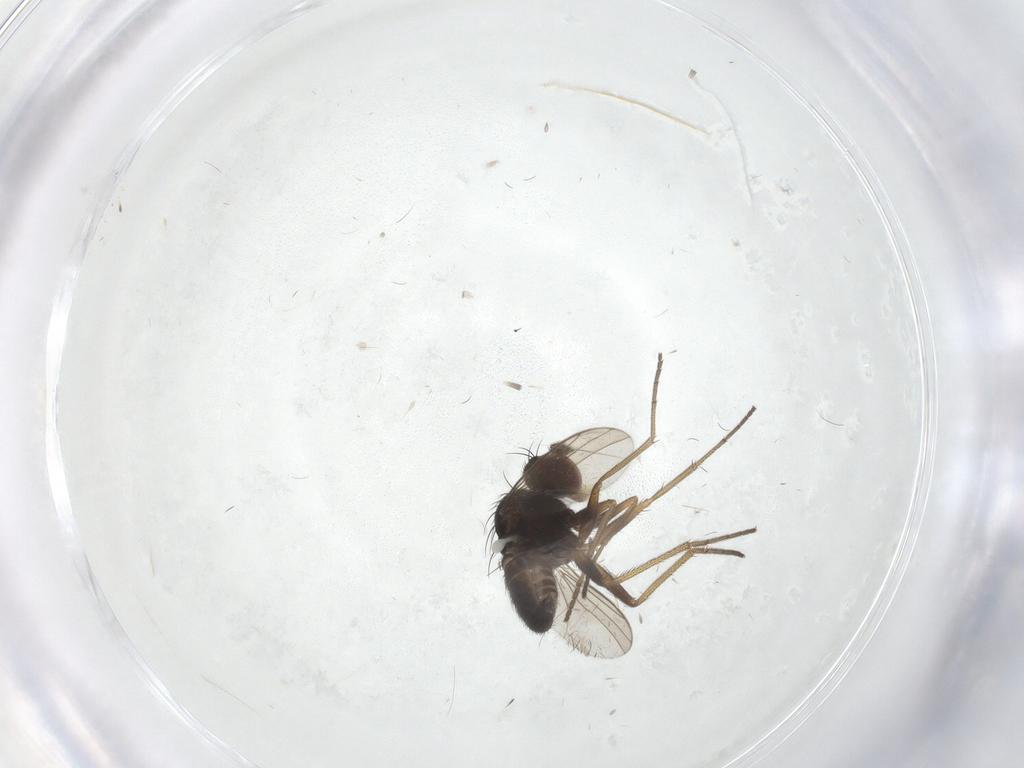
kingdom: Animalia
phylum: Arthropoda
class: Insecta
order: Diptera
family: Dolichopodidae
